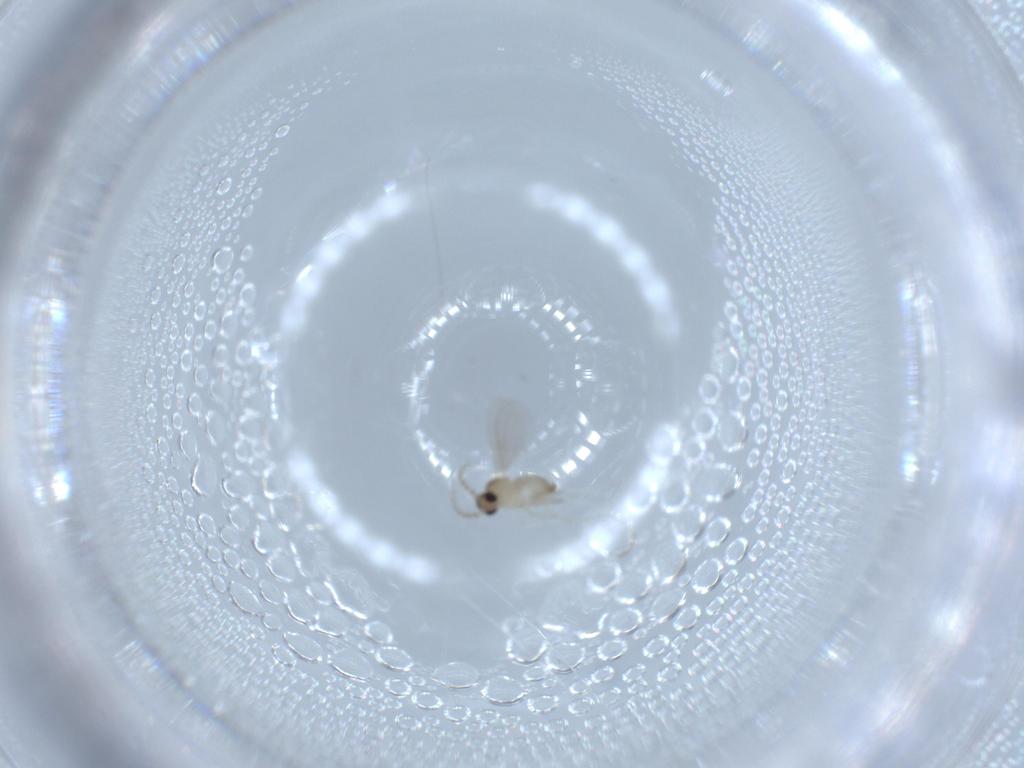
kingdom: Animalia
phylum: Arthropoda
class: Insecta
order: Diptera
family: Cecidomyiidae
